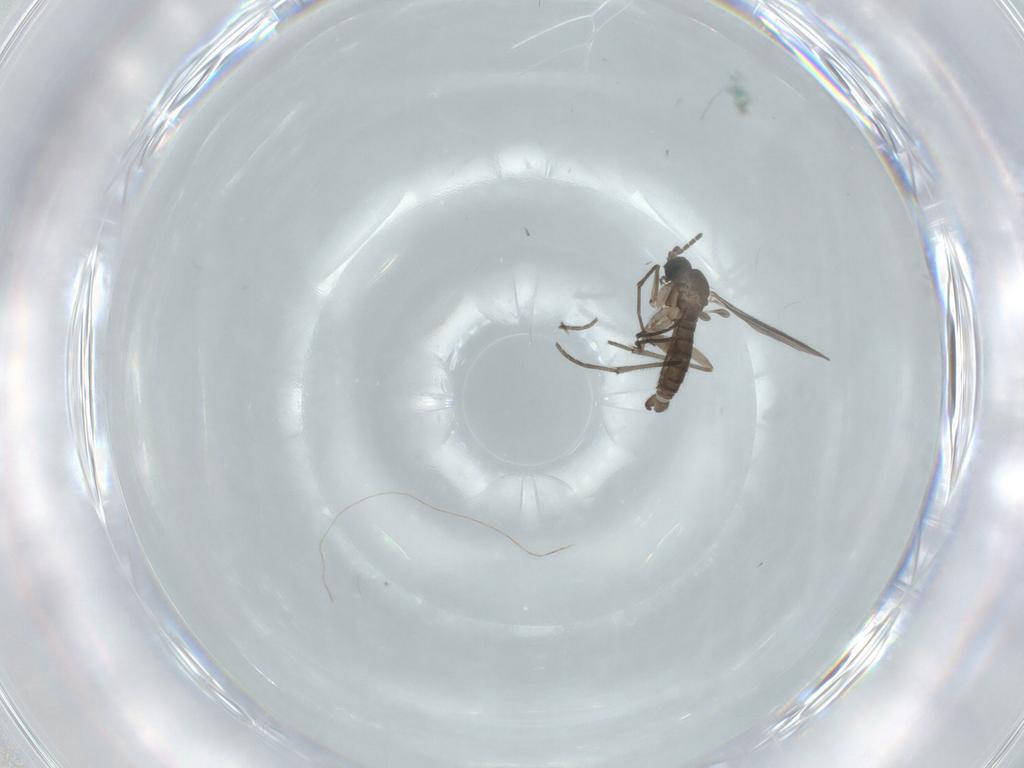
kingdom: Animalia
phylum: Arthropoda
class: Insecta
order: Diptera
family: Sciaridae
